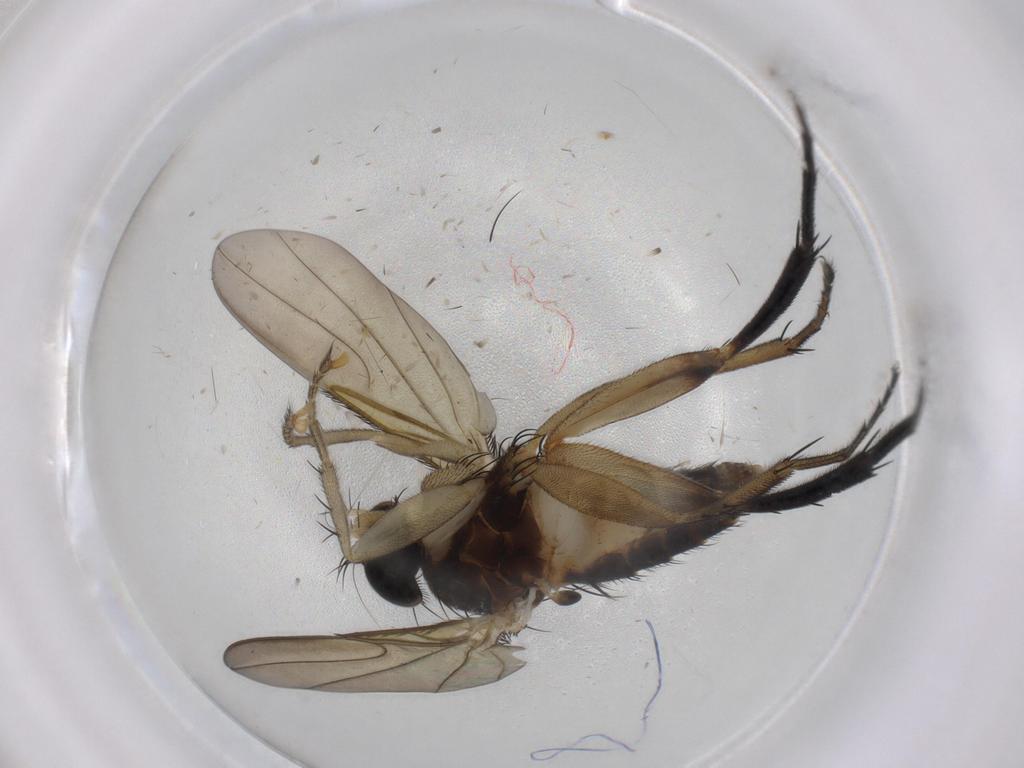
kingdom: Animalia
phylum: Arthropoda
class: Insecta
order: Diptera
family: Phoridae
